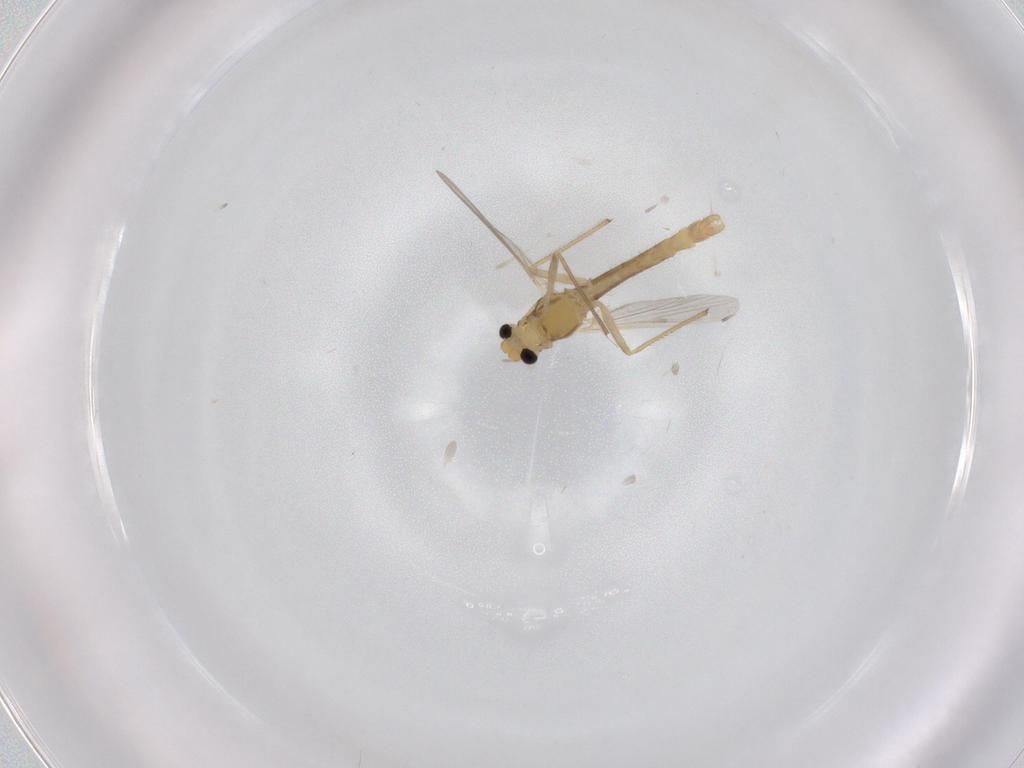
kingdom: Animalia
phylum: Arthropoda
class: Insecta
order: Diptera
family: Chironomidae
